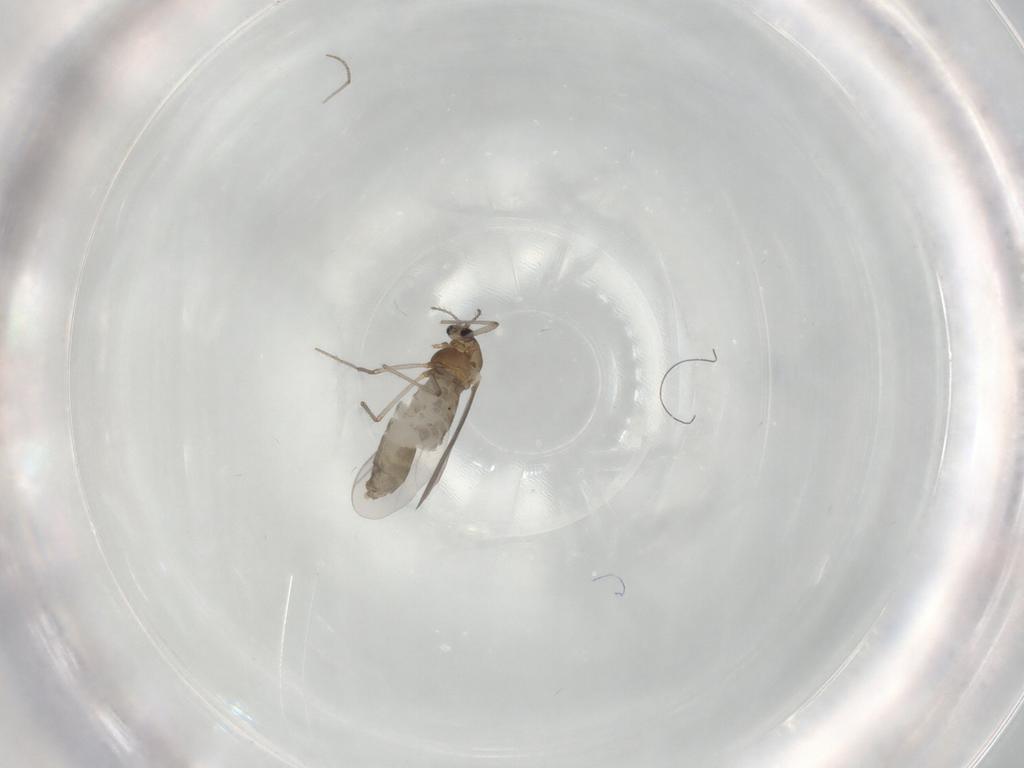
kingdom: Animalia
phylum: Arthropoda
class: Insecta
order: Diptera
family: Chironomidae
